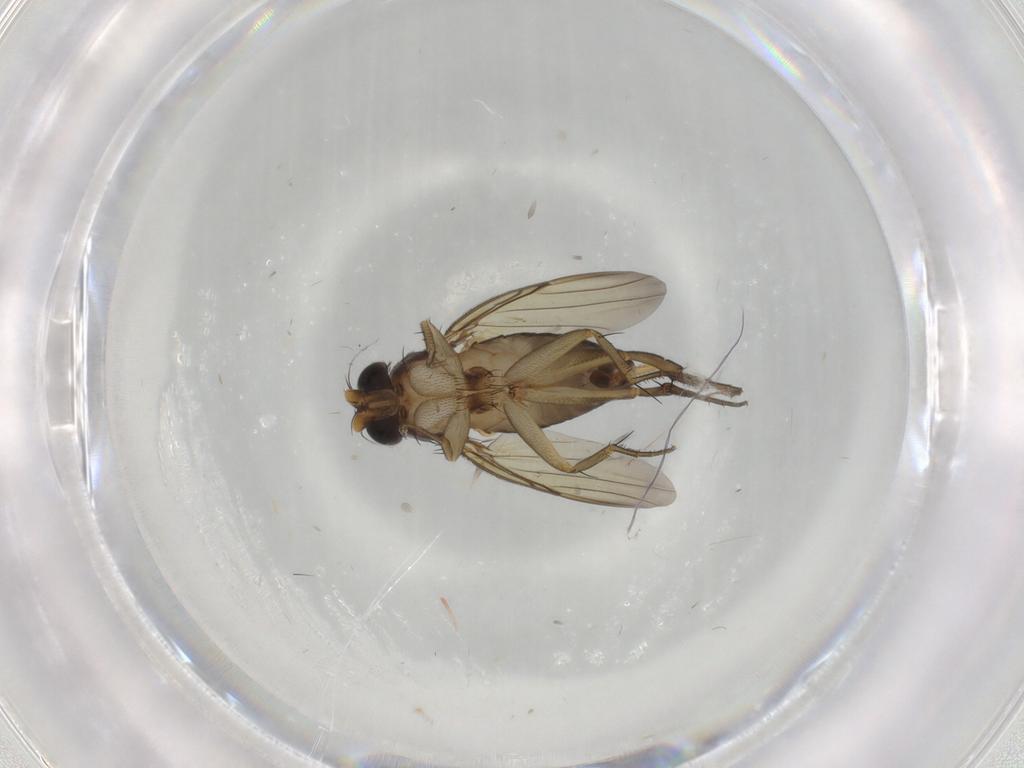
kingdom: Animalia
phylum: Arthropoda
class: Insecta
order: Diptera
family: Phoridae
